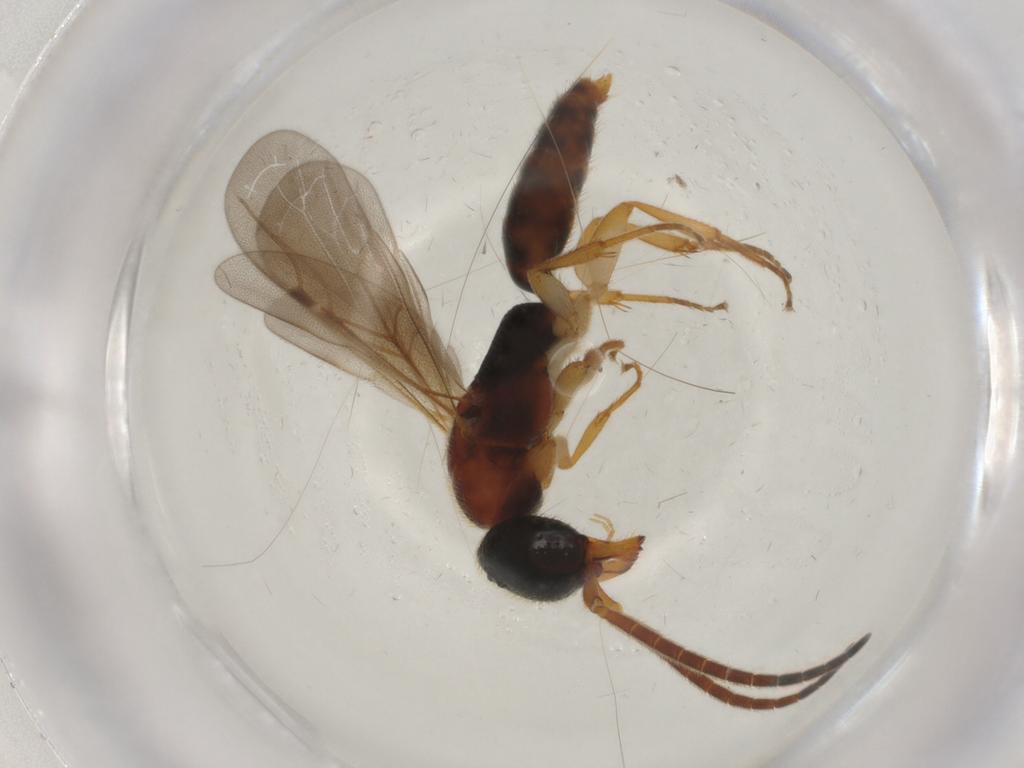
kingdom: Animalia
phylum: Arthropoda
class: Insecta
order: Hymenoptera
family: Bethylidae
